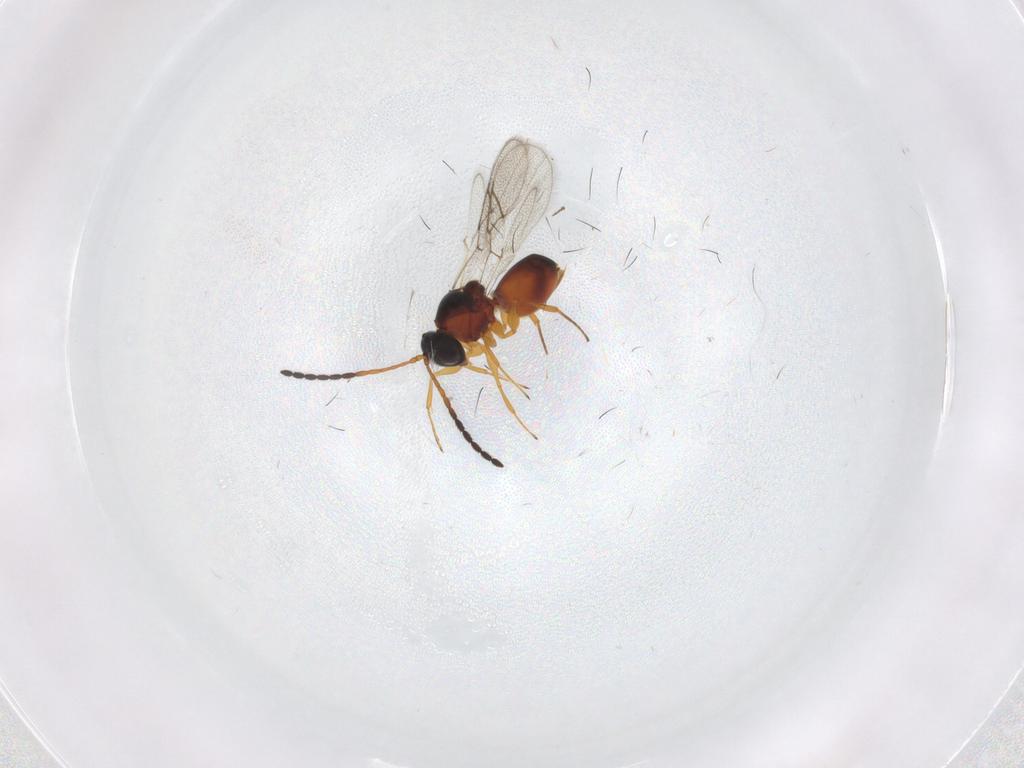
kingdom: Animalia
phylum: Arthropoda
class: Insecta
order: Hymenoptera
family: Figitidae
